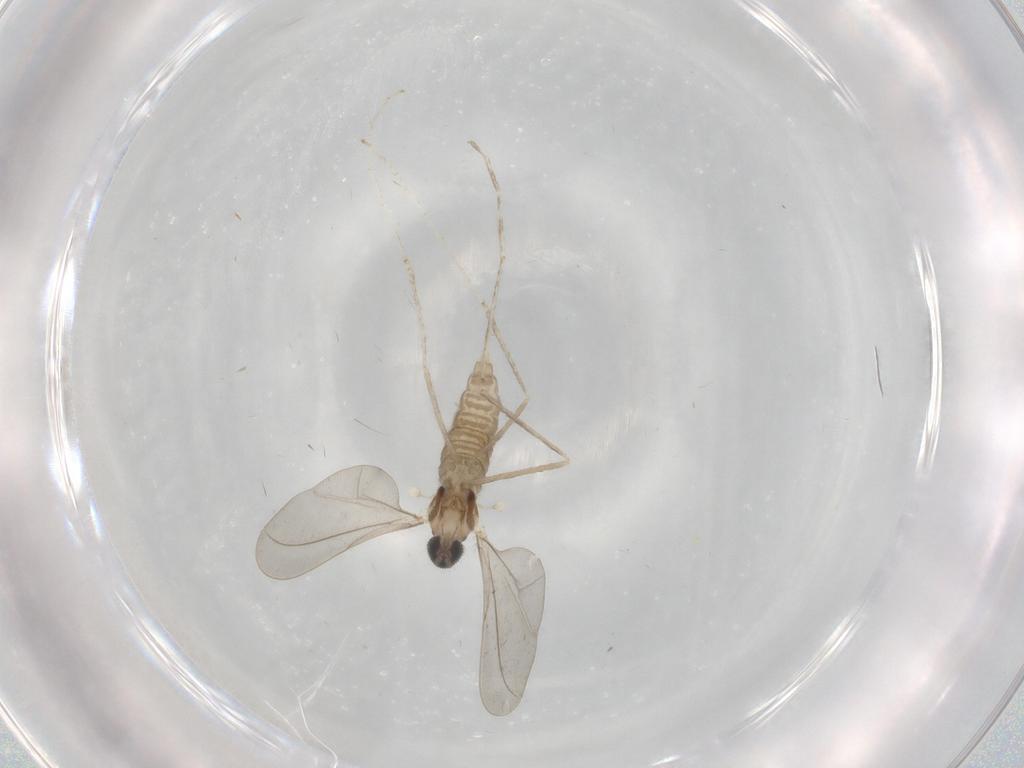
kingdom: Animalia
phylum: Arthropoda
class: Insecta
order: Diptera
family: Cecidomyiidae
